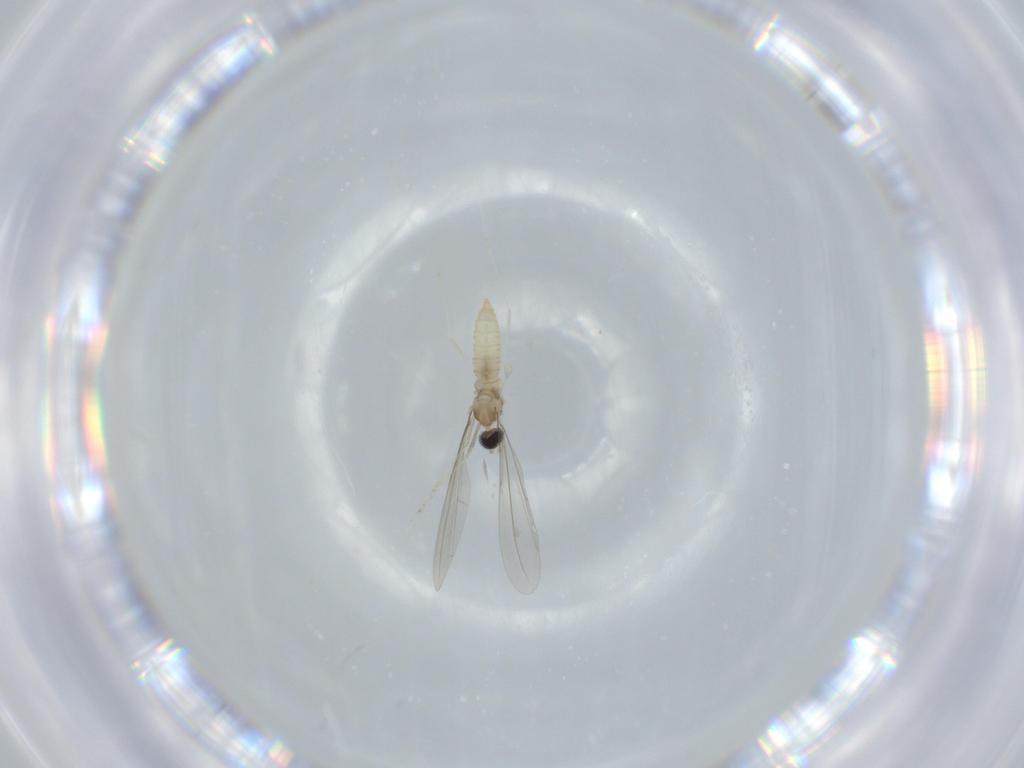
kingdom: Animalia
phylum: Arthropoda
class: Insecta
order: Diptera
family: Cecidomyiidae
